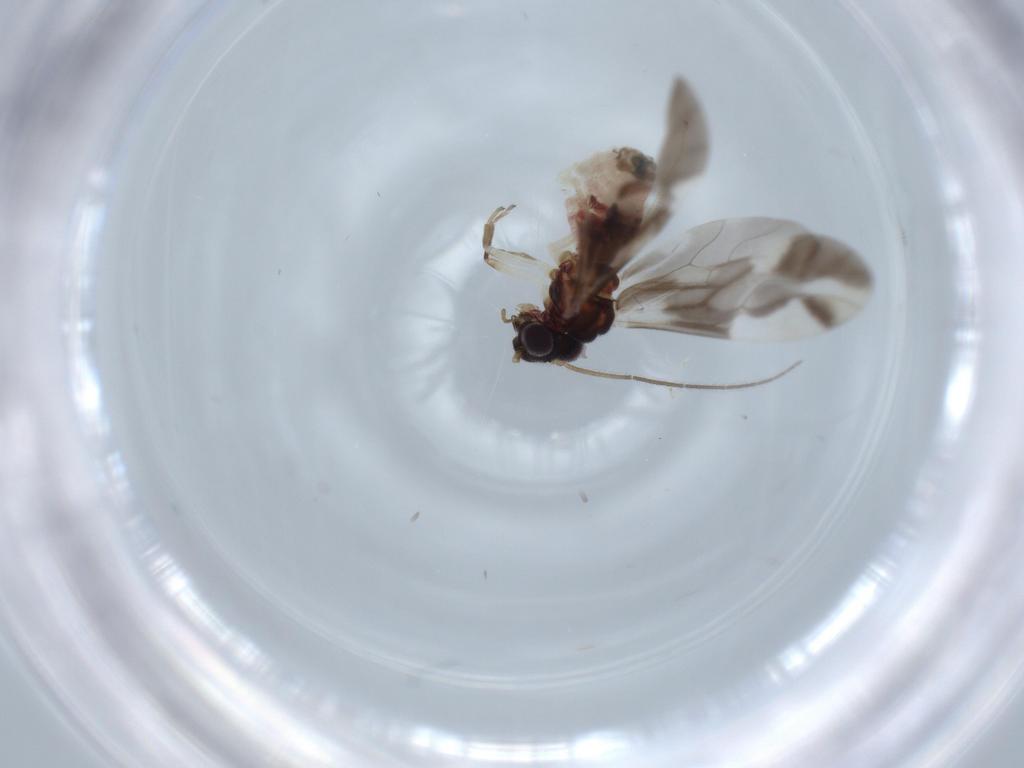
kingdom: Animalia
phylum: Arthropoda
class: Insecta
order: Psocodea
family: Caeciliusidae
